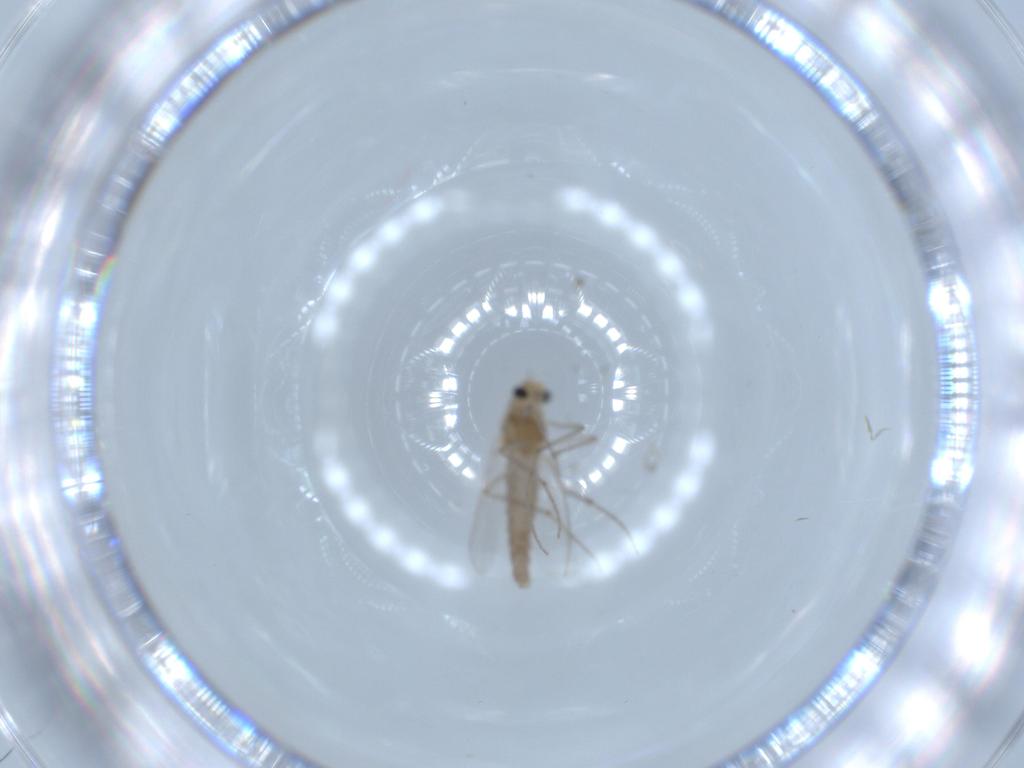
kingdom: Animalia
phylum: Arthropoda
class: Insecta
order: Diptera
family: Chironomidae
